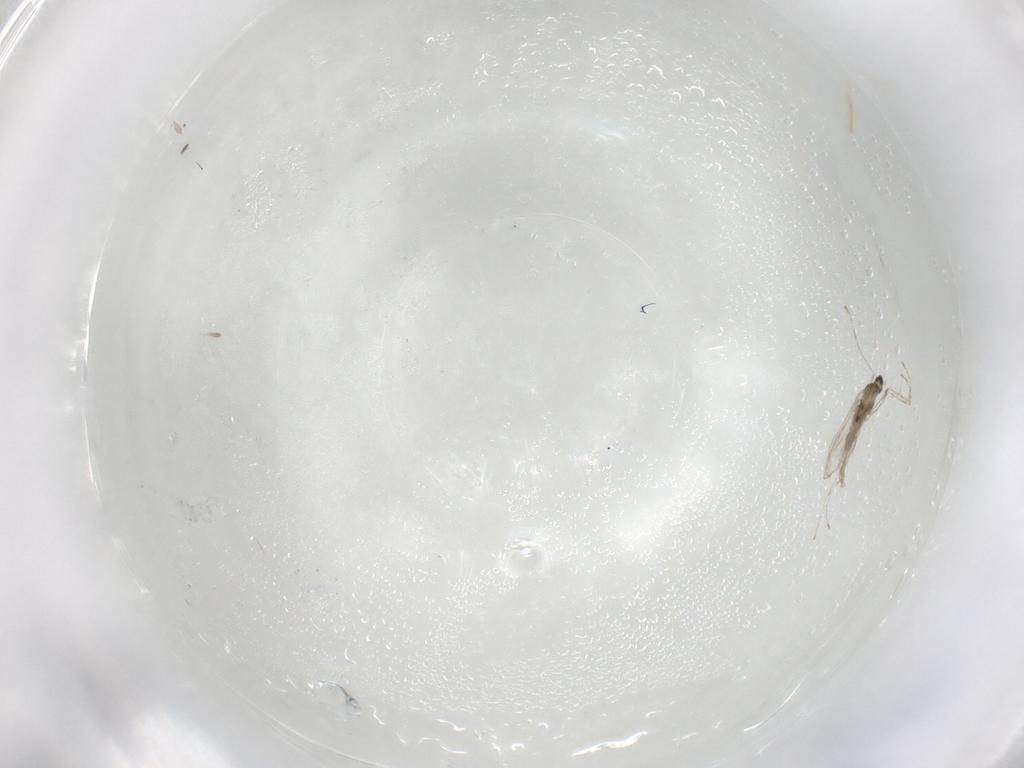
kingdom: Animalia
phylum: Arthropoda
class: Insecta
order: Diptera
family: Cecidomyiidae
